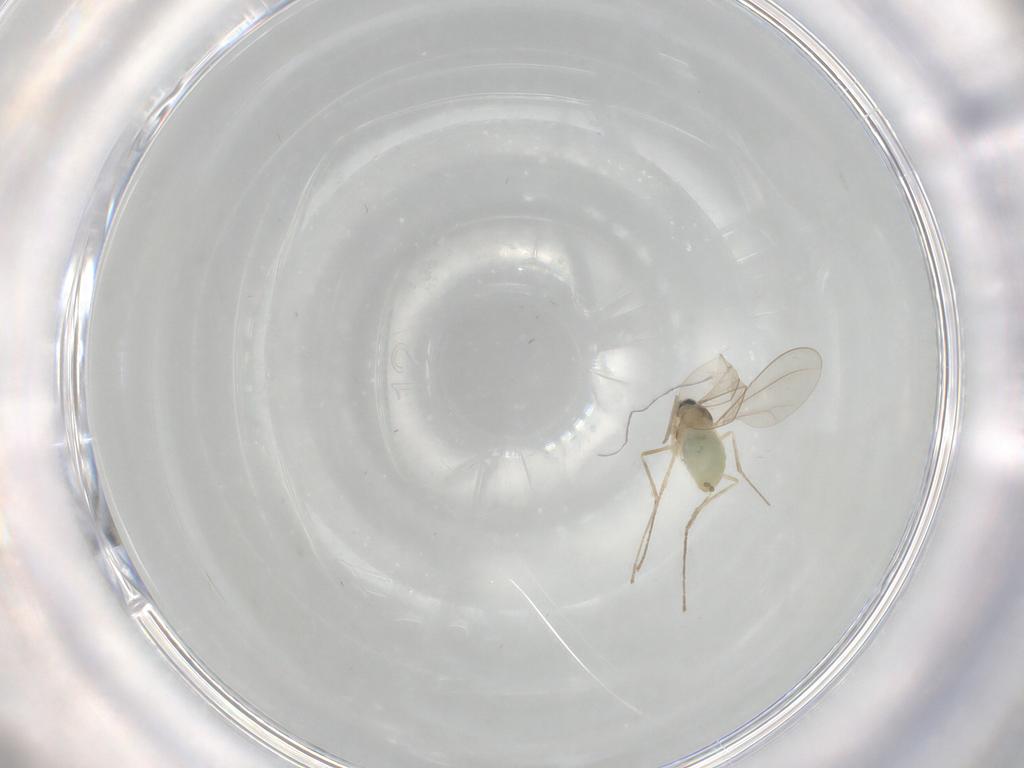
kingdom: Animalia
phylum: Arthropoda
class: Insecta
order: Diptera
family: Cecidomyiidae
